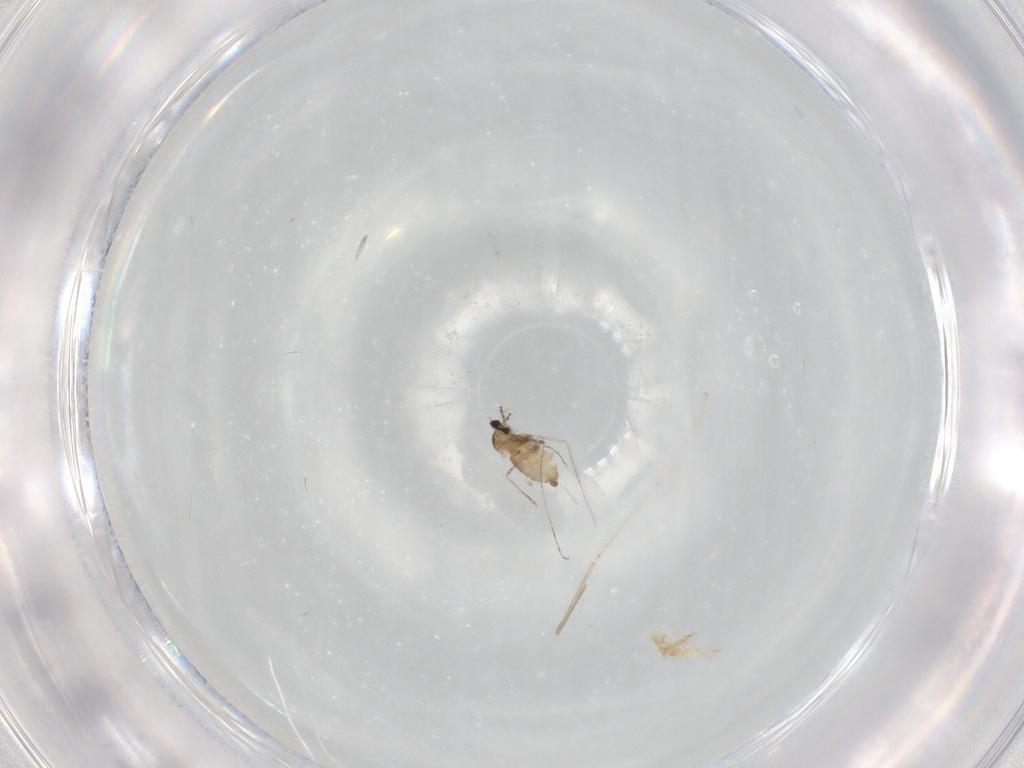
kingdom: Animalia
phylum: Arthropoda
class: Insecta
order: Diptera
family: Cecidomyiidae
